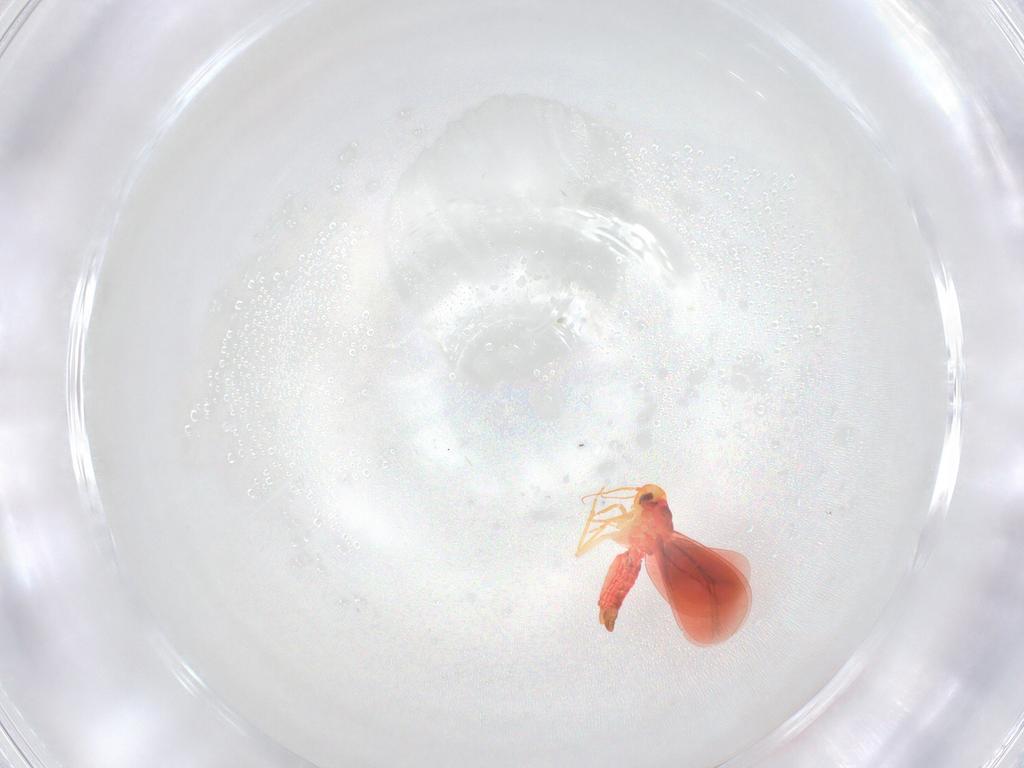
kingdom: Animalia
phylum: Arthropoda
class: Insecta
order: Hemiptera
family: Aleyrodidae
